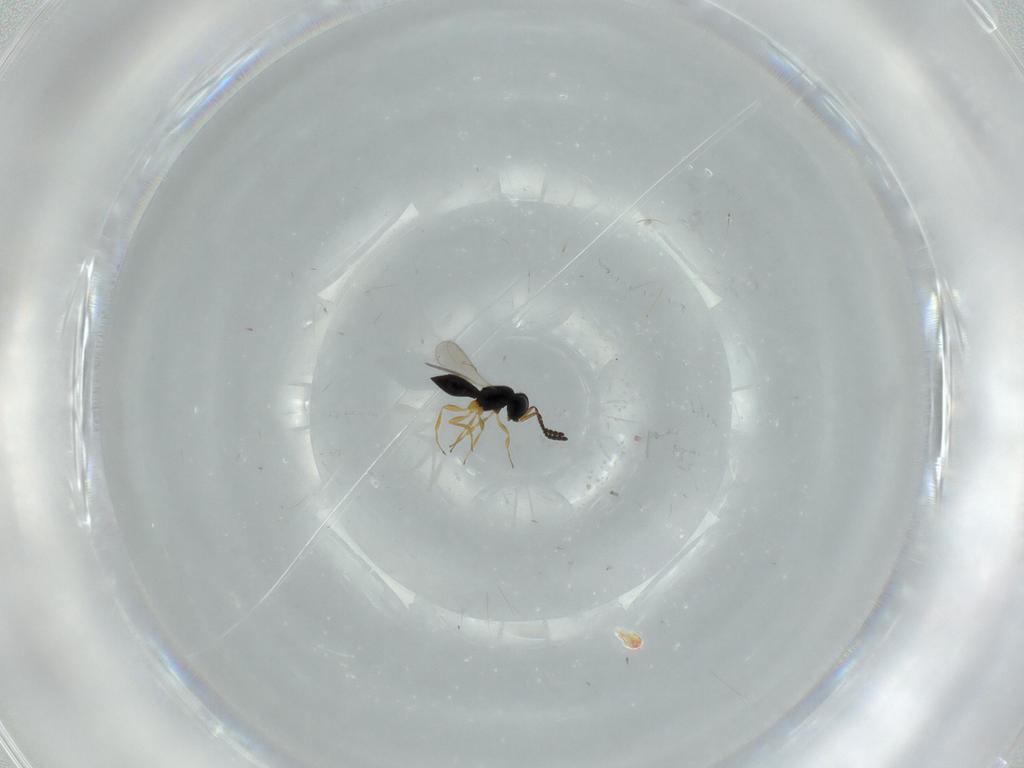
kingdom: Animalia
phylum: Arthropoda
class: Insecta
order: Hymenoptera
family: Scelionidae
